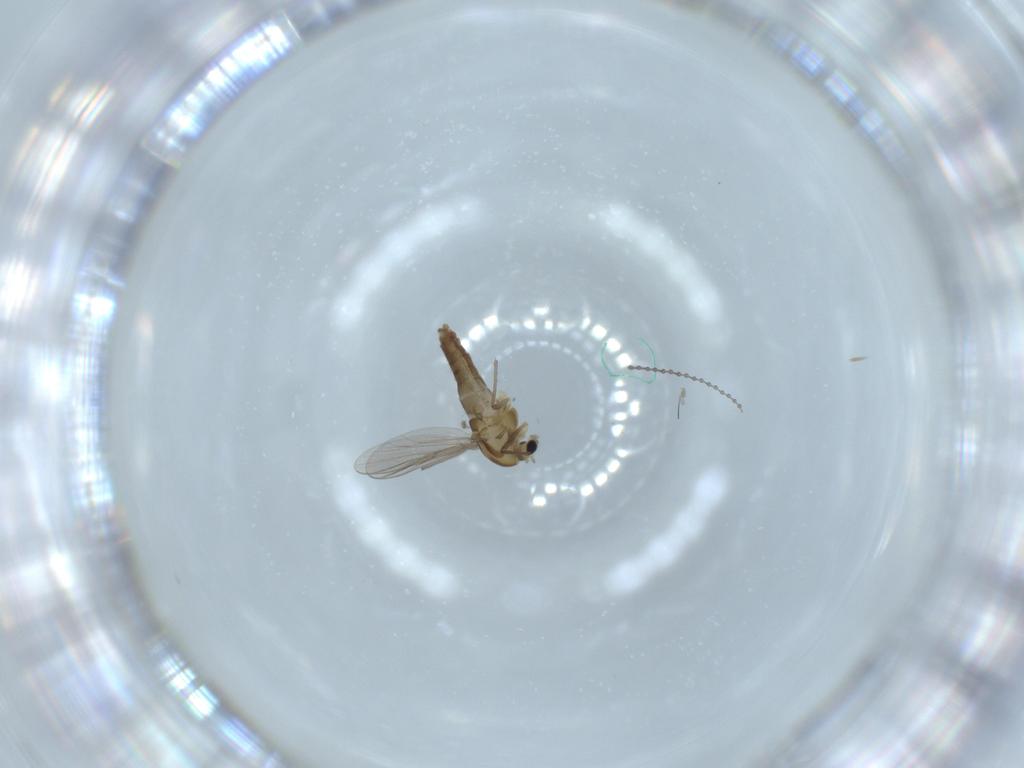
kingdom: Animalia
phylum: Arthropoda
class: Insecta
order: Diptera
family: Chironomidae
